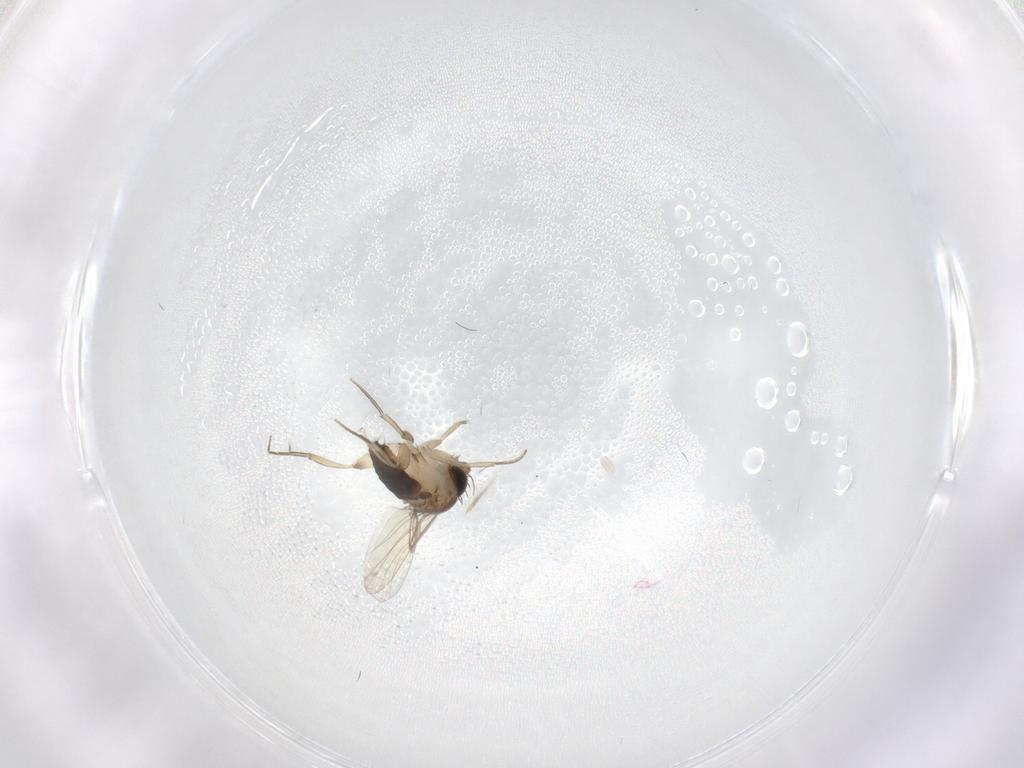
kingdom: Animalia
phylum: Arthropoda
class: Insecta
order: Diptera
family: Phoridae
